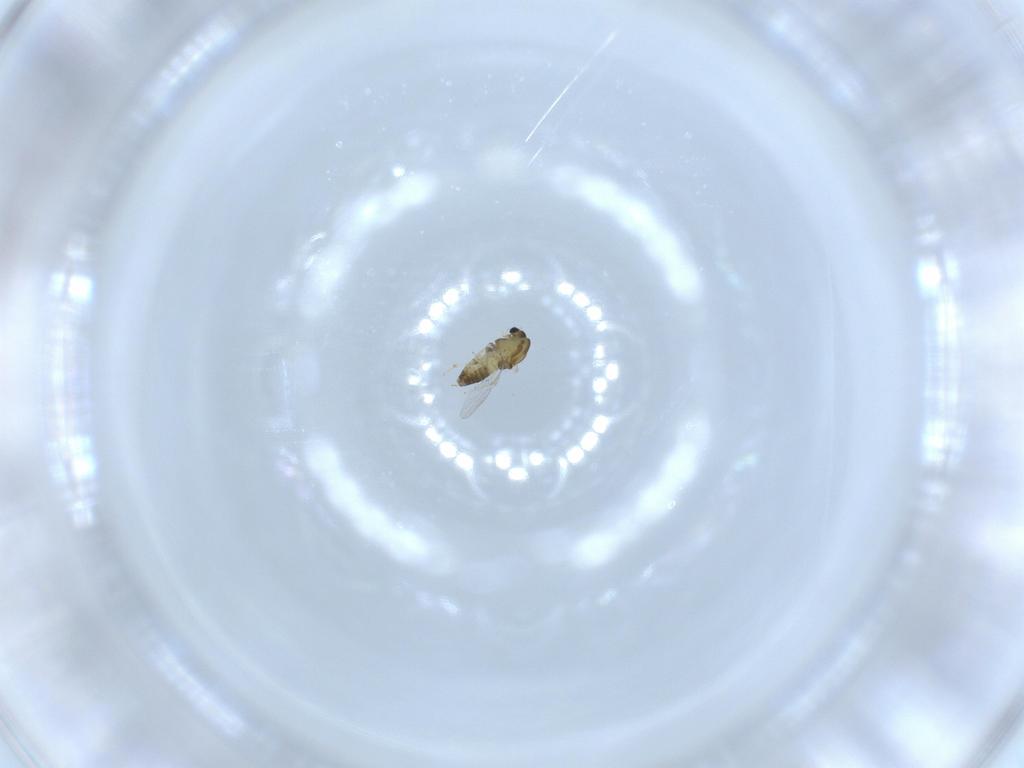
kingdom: Animalia
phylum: Arthropoda
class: Insecta
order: Diptera
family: Chironomidae
